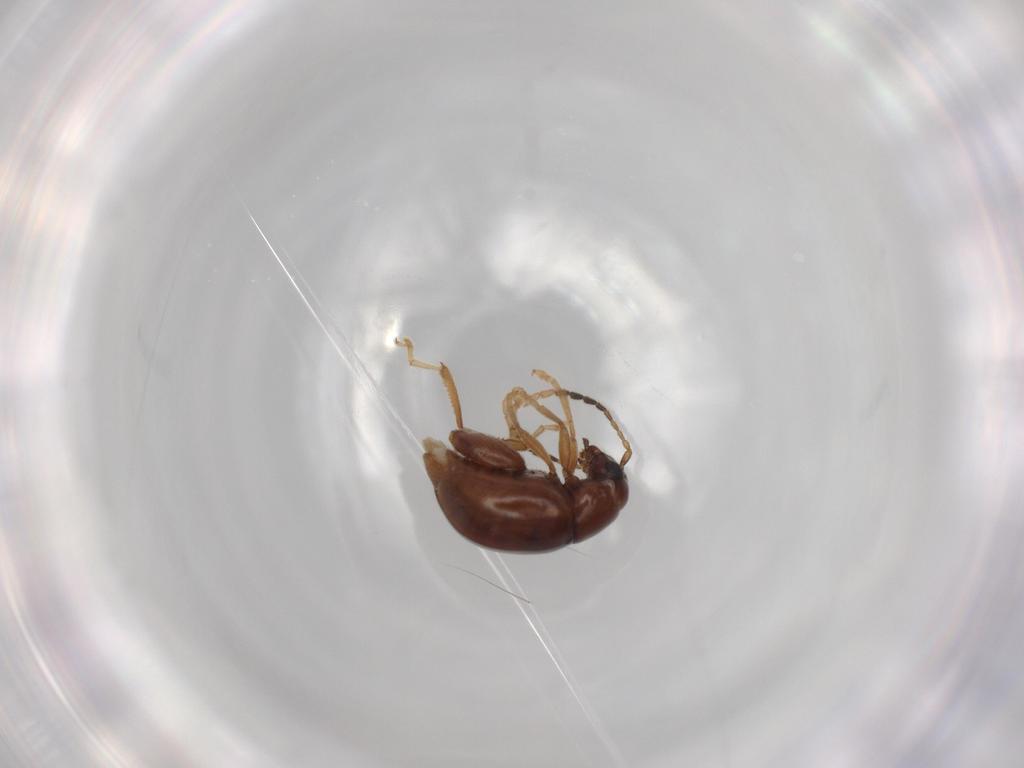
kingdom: Animalia
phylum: Arthropoda
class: Insecta
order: Coleoptera
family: Chrysomelidae
